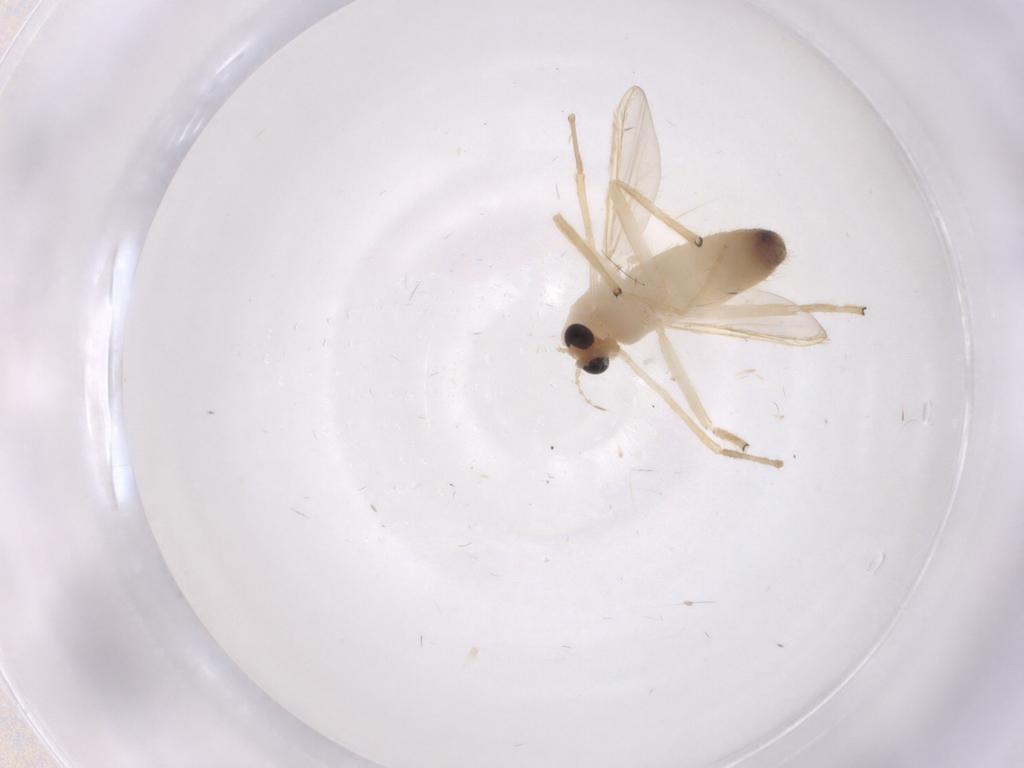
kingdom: Animalia
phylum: Arthropoda
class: Insecta
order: Diptera
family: Chironomidae
